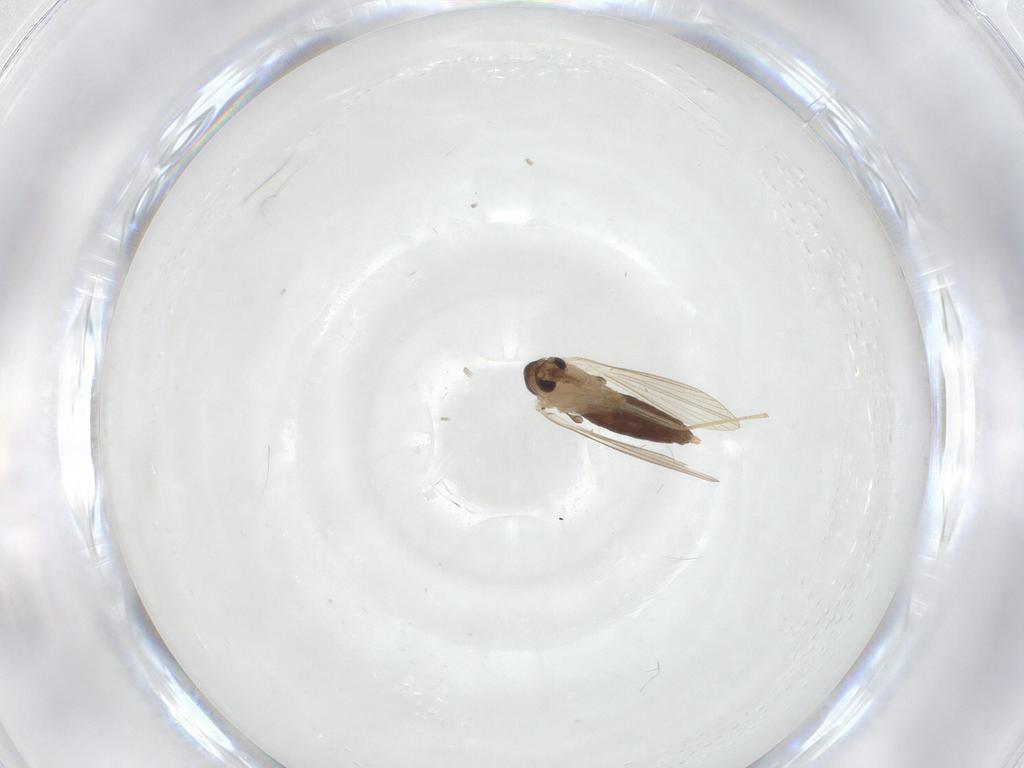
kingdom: Animalia
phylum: Arthropoda
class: Insecta
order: Diptera
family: Psychodidae
